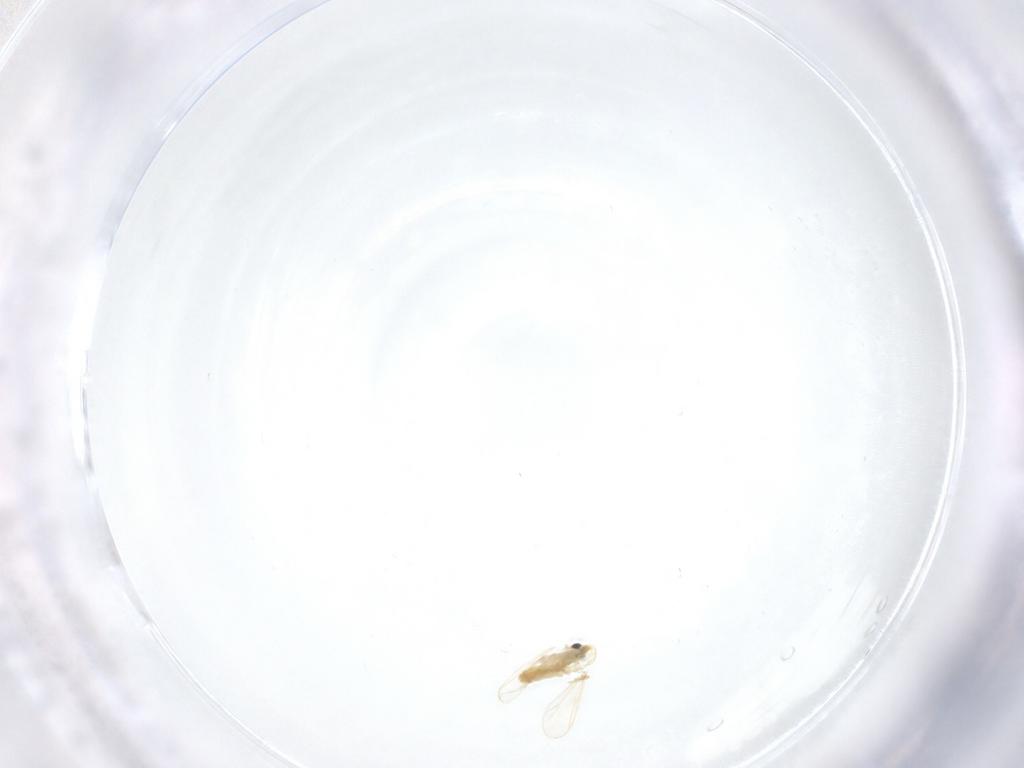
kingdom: Animalia
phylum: Arthropoda
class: Insecta
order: Diptera
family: Chironomidae
